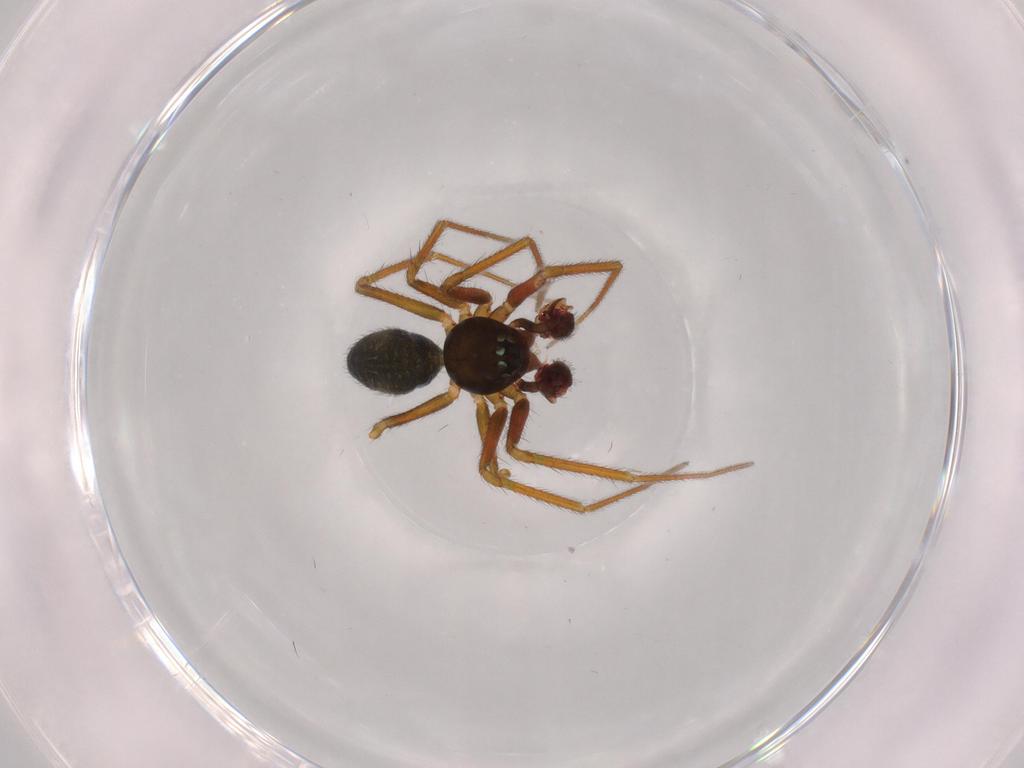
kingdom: Animalia
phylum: Arthropoda
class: Arachnida
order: Araneae
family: Linyphiidae
